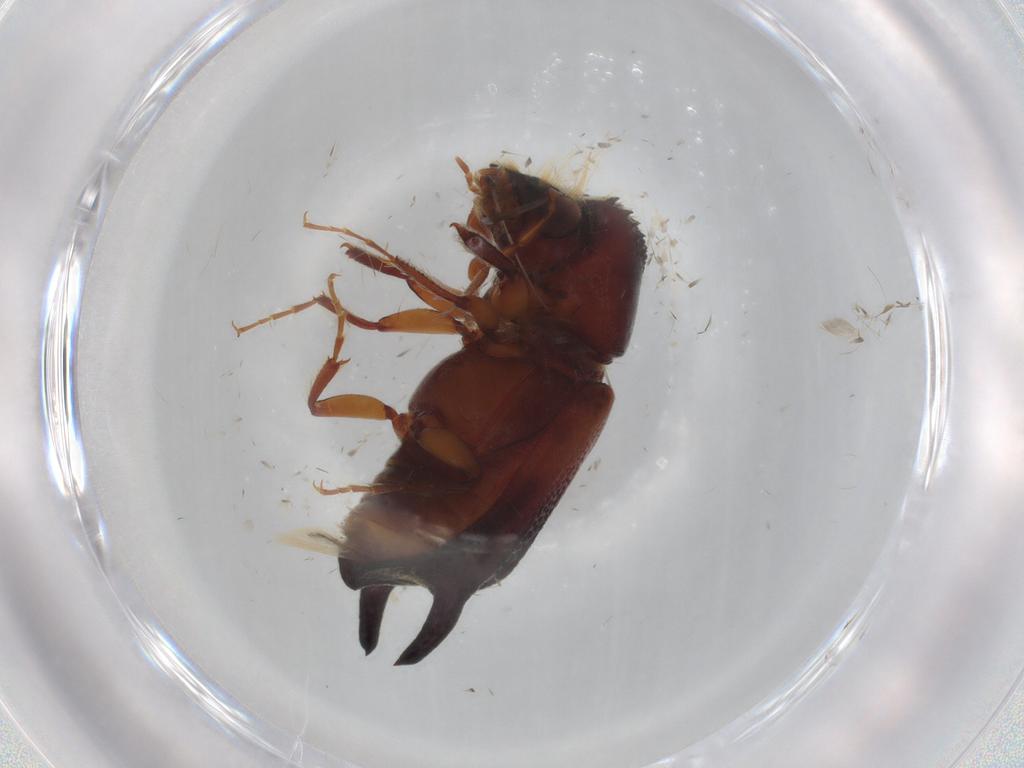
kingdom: Animalia
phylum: Arthropoda
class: Insecta
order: Coleoptera
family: Bostrichidae
